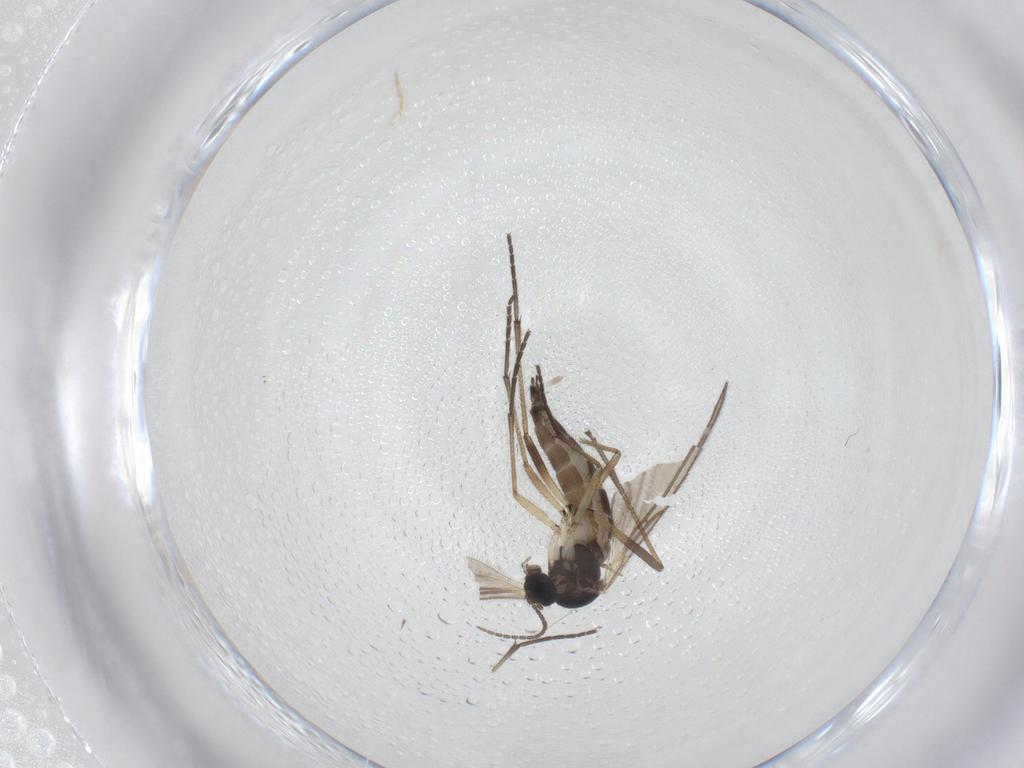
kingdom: Animalia
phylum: Arthropoda
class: Insecta
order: Diptera
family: Sciaridae
